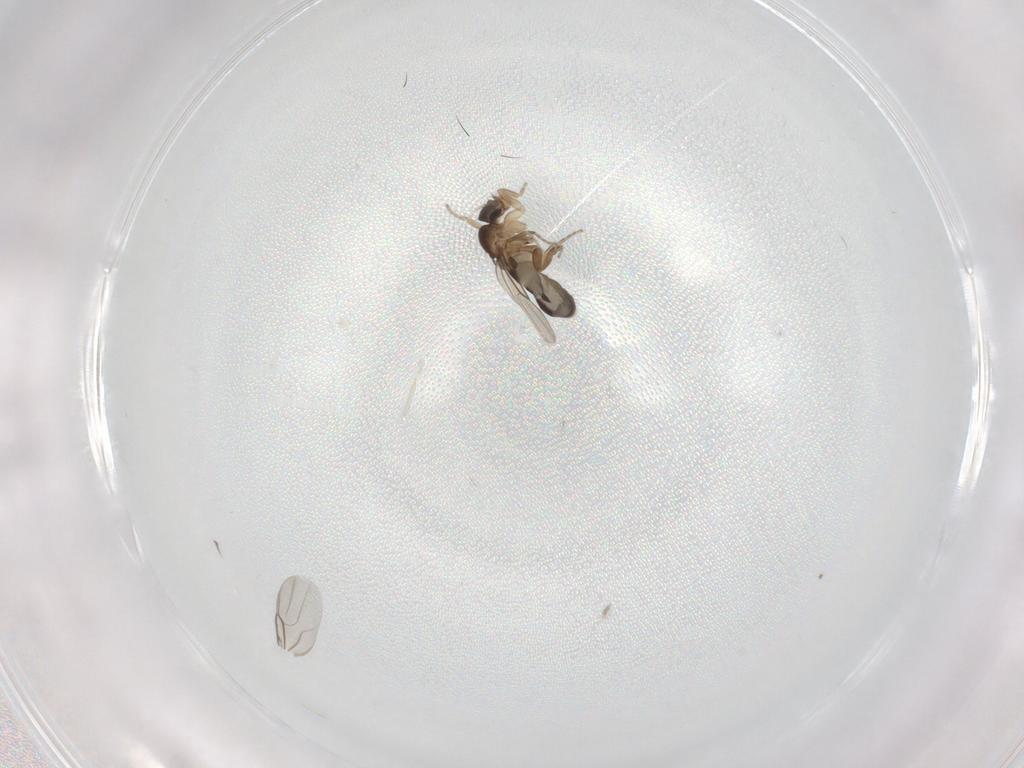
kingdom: Animalia
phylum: Arthropoda
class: Insecta
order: Diptera
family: Cecidomyiidae
